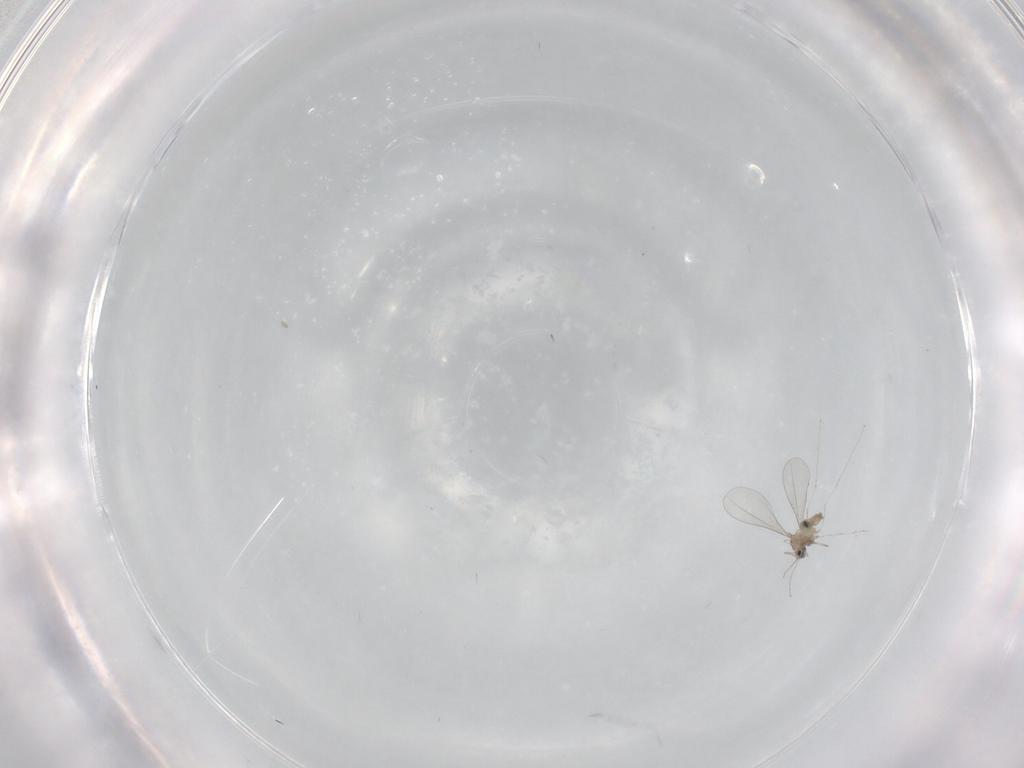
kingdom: Animalia
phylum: Arthropoda
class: Insecta
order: Diptera
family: Cecidomyiidae
